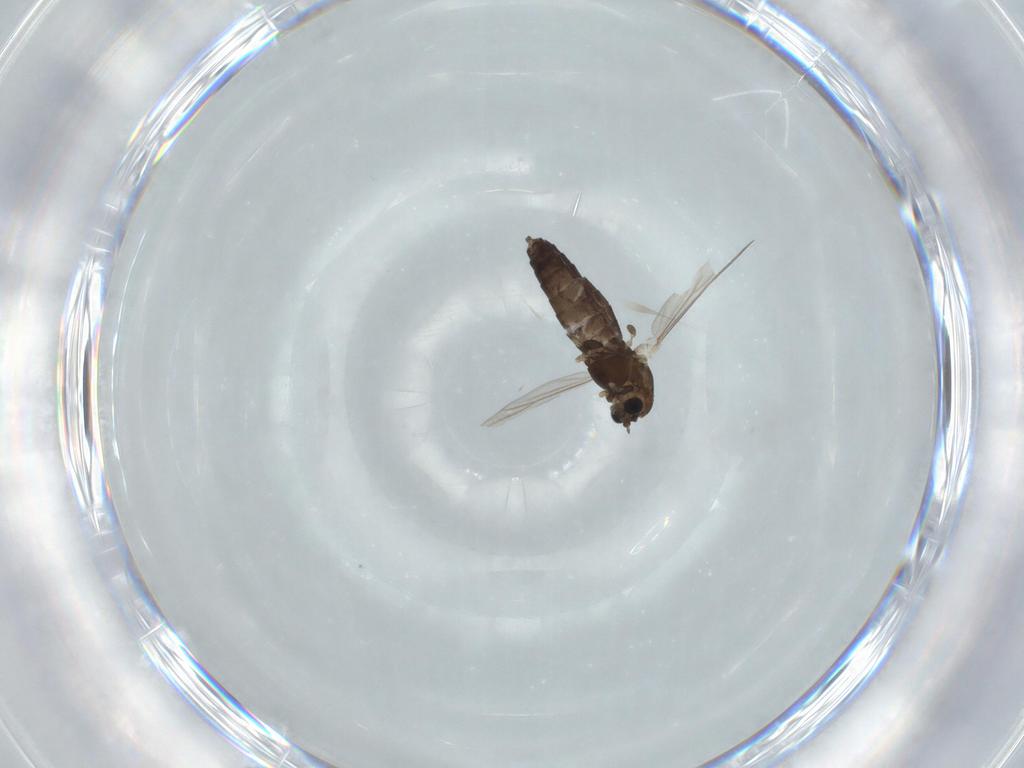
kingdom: Animalia
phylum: Arthropoda
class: Insecta
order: Diptera
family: Chironomidae
